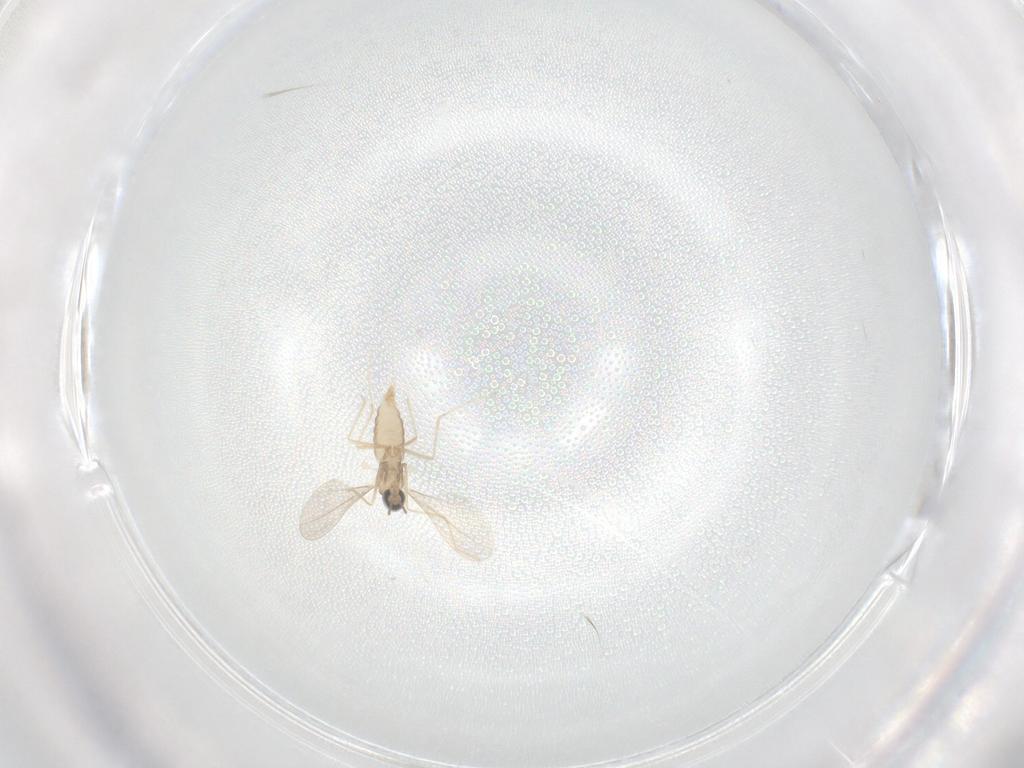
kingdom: Animalia
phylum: Arthropoda
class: Insecta
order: Diptera
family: Cecidomyiidae
